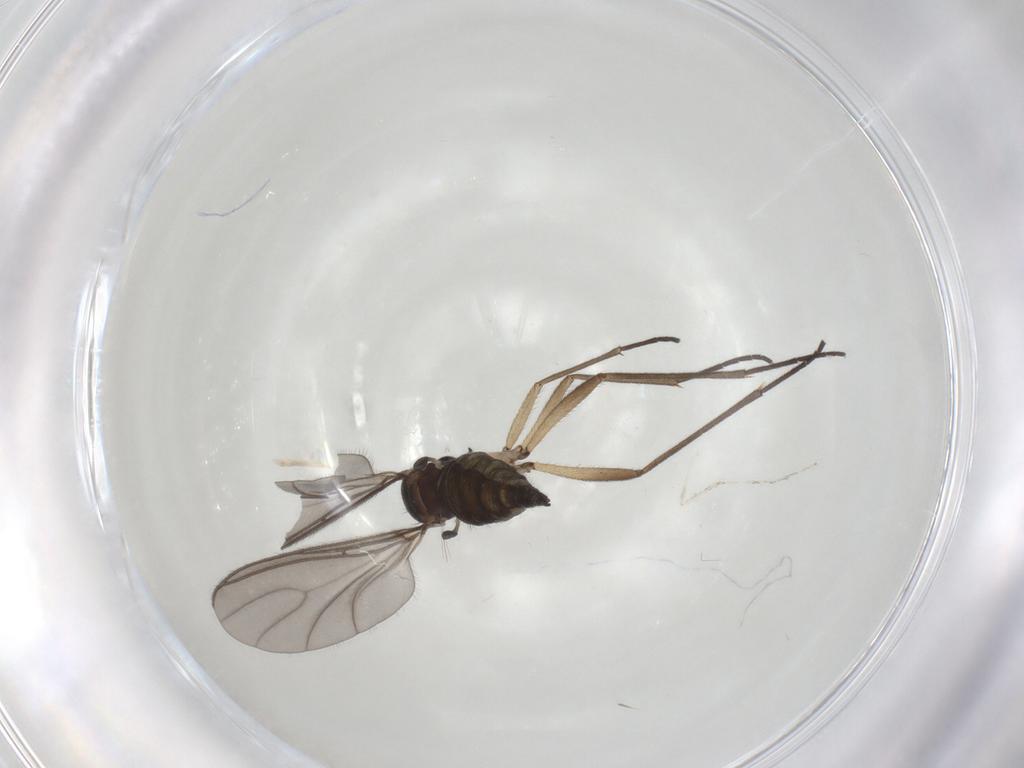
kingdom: Animalia
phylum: Arthropoda
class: Insecta
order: Diptera
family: Sciaridae
